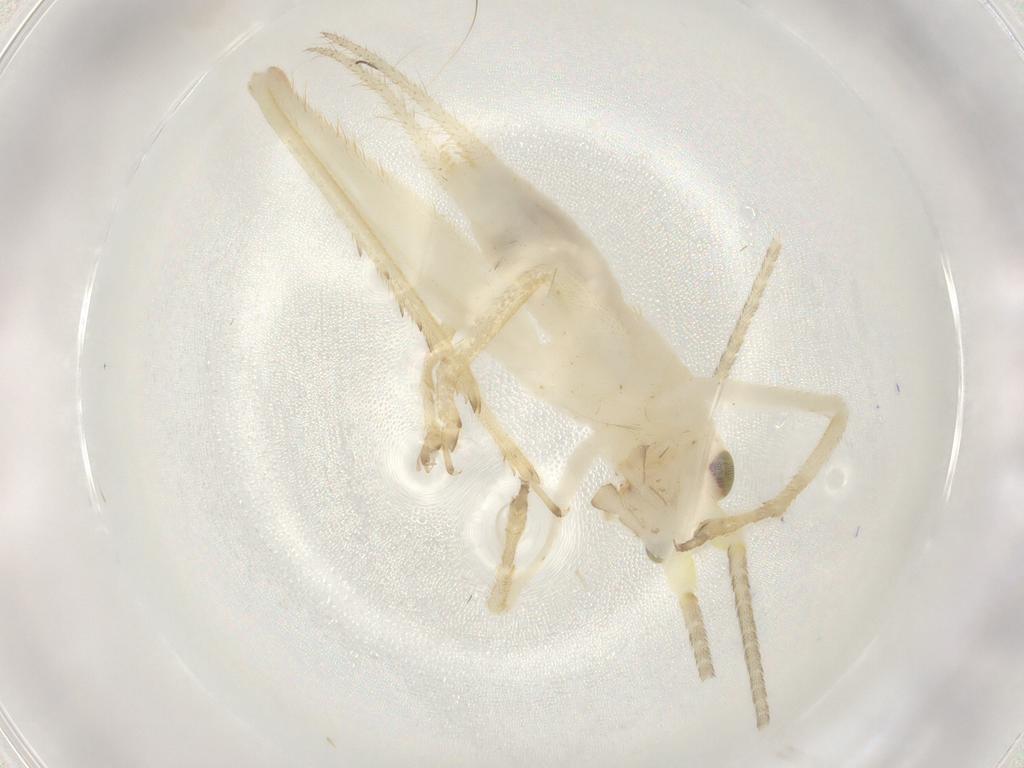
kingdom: Animalia
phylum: Arthropoda
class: Insecta
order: Orthoptera
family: Trigonidiidae
